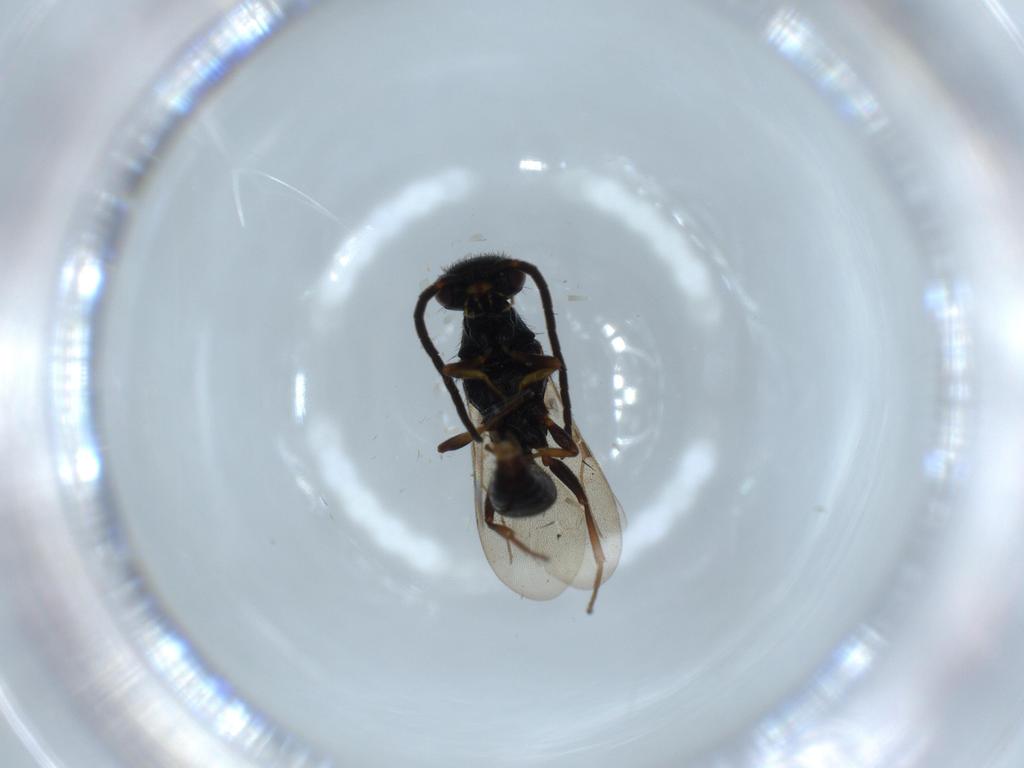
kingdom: Animalia
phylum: Arthropoda
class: Insecta
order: Hymenoptera
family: Bethylidae
